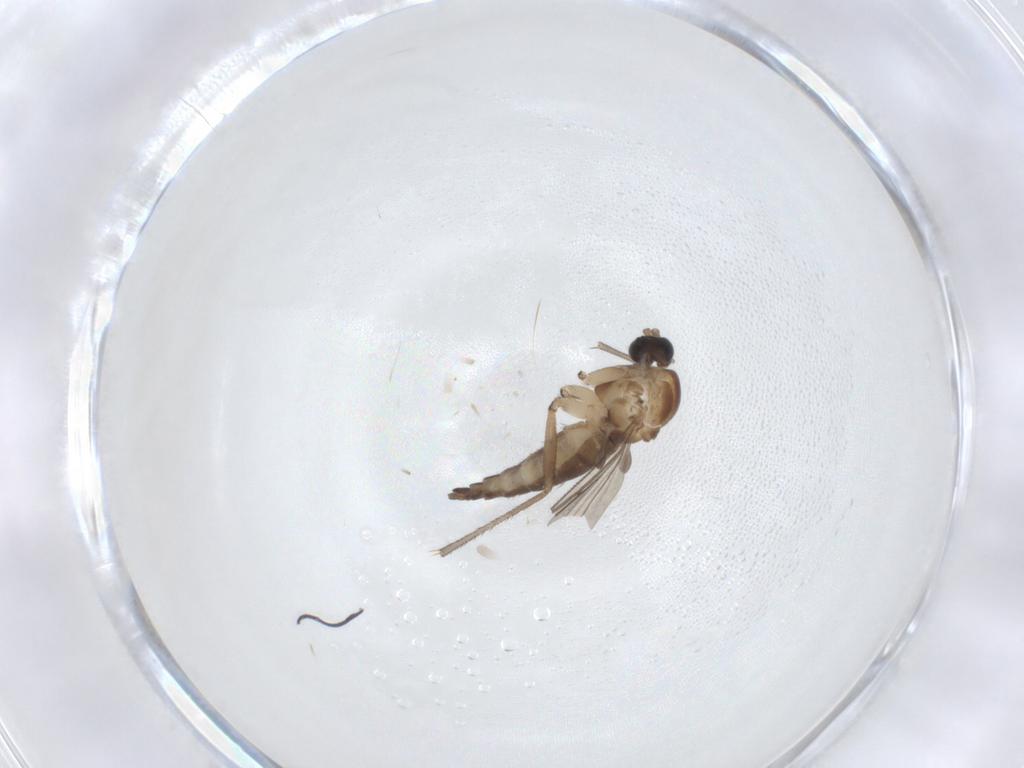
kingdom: Animalia
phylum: Arthropoda
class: Insecta
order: Diptera
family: Sciaridae
